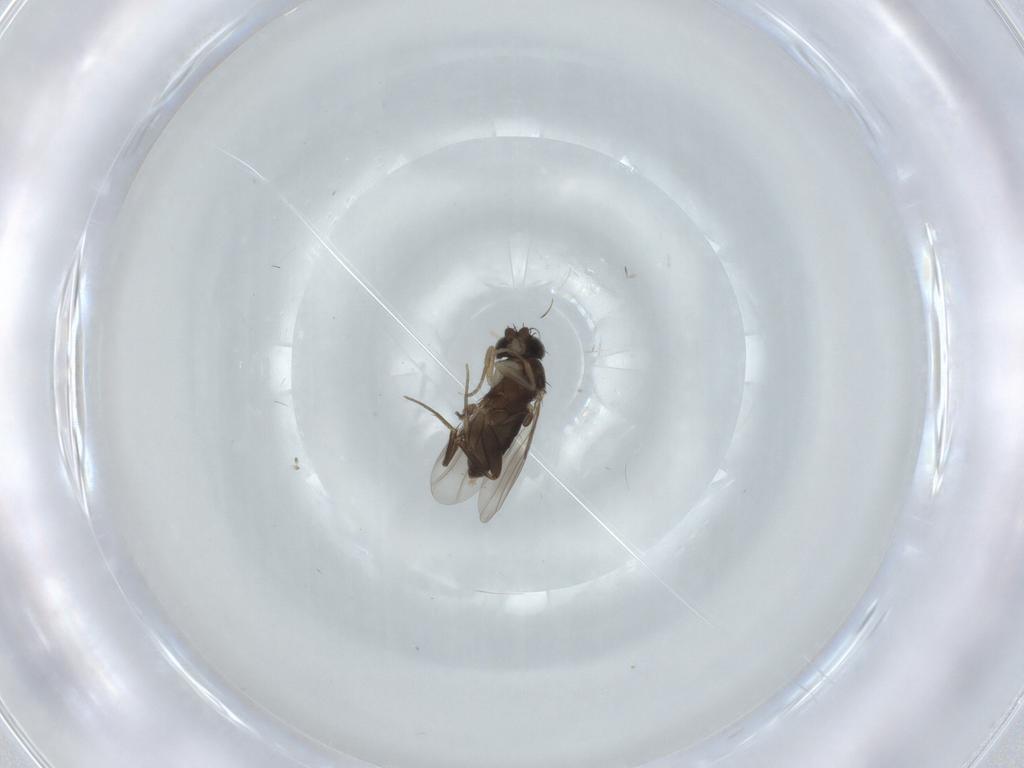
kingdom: Animalia
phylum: Arthropoda
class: Insecta
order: Diptera
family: Phoridae
